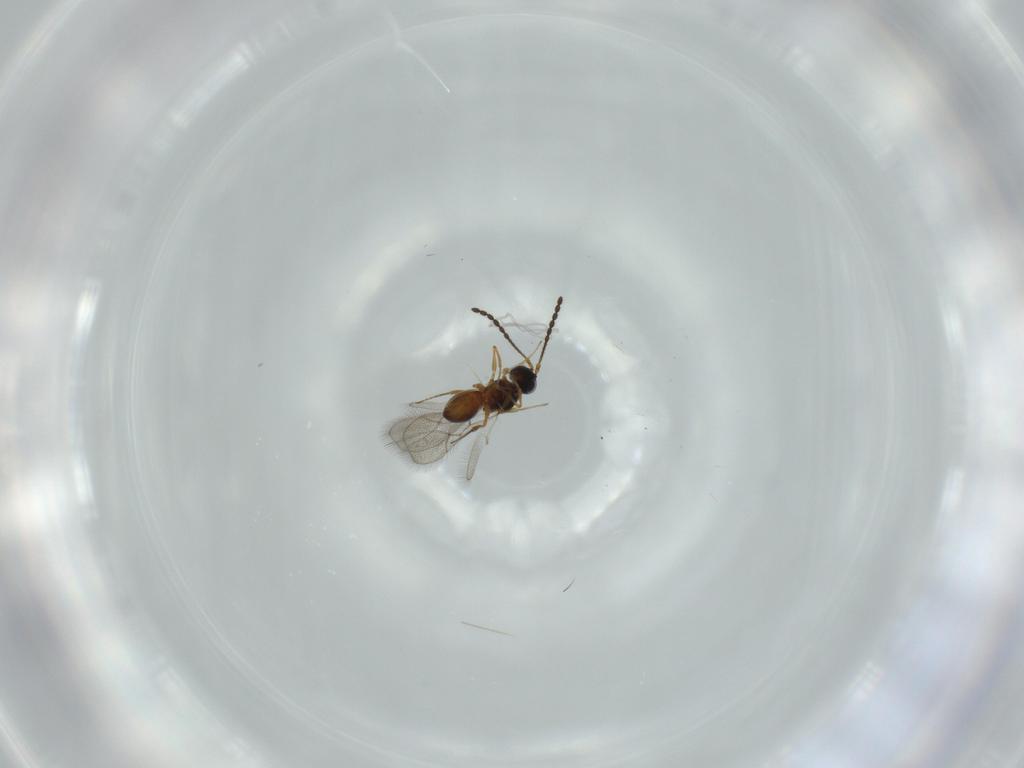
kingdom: Animalia
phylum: Arthropoda
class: Insecta
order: Hymenoptera
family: Figitidae
